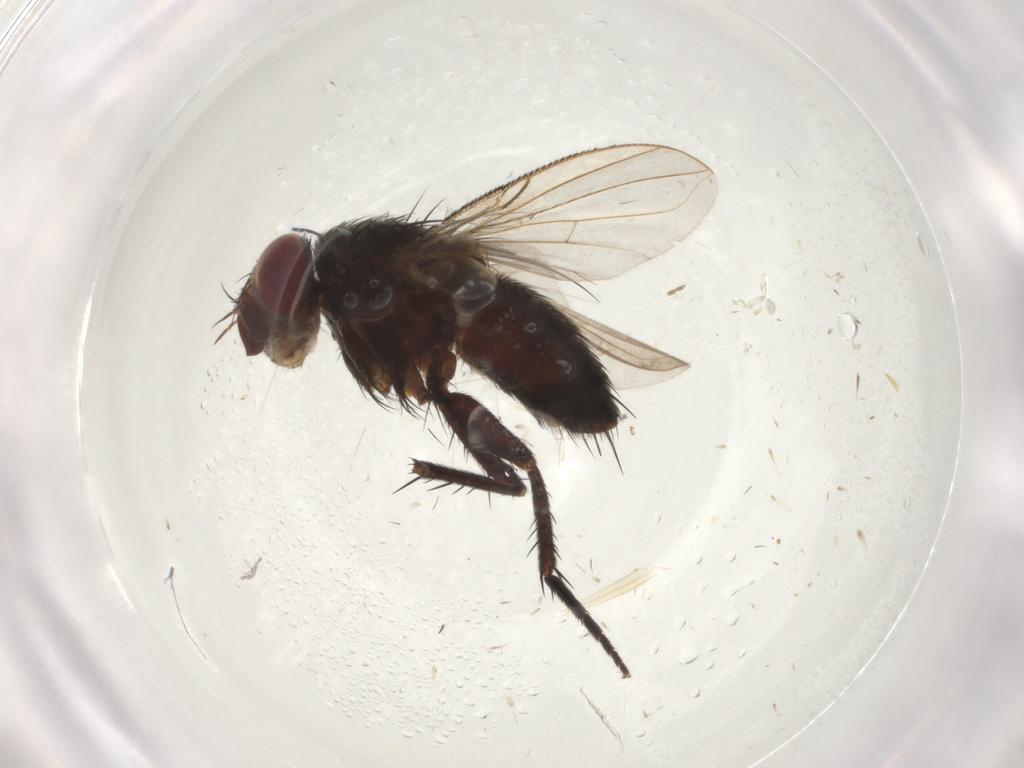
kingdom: Animalia
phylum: Arthropoda
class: Insecta
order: Diptera
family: Tachinidae
